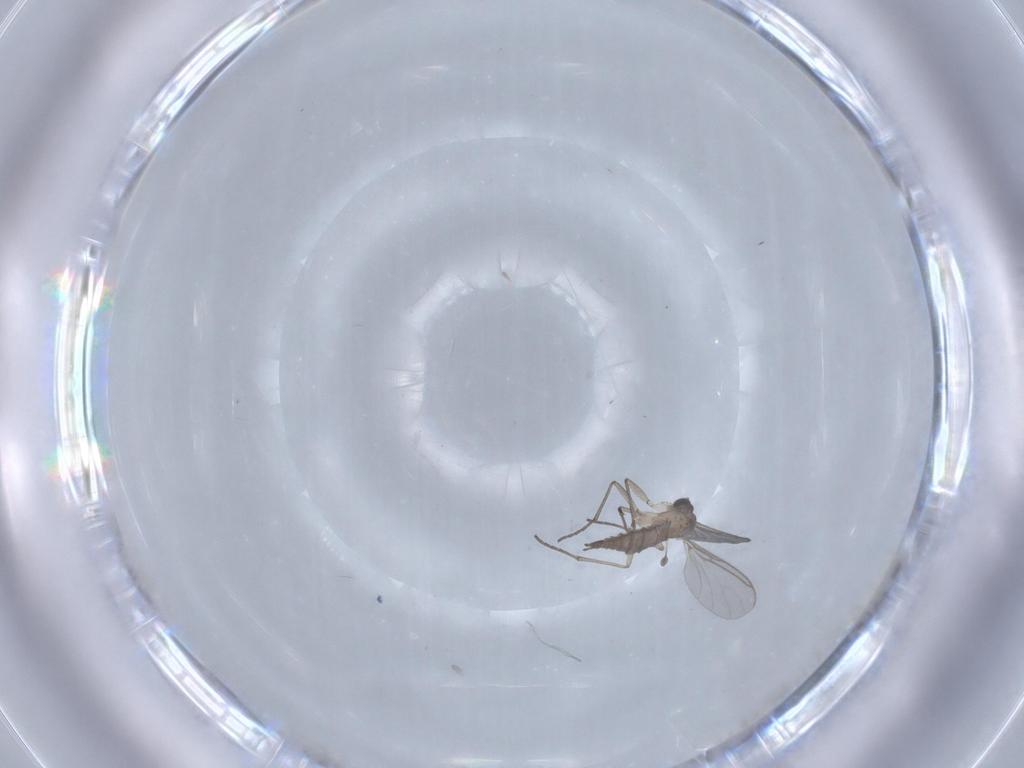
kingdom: Animalia
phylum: Arthropoda
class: Insecta
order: Diptera
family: Sciaridae
